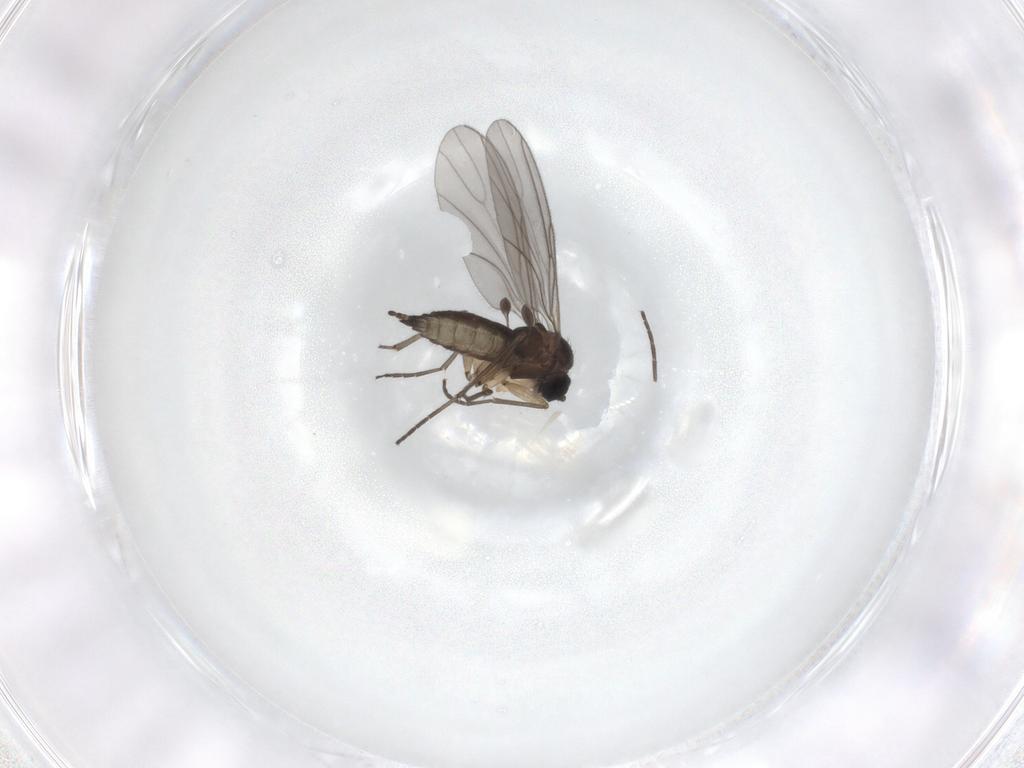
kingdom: Animalia
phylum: Arthropoda
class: Insecta
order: Diptera
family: Sciaridae
